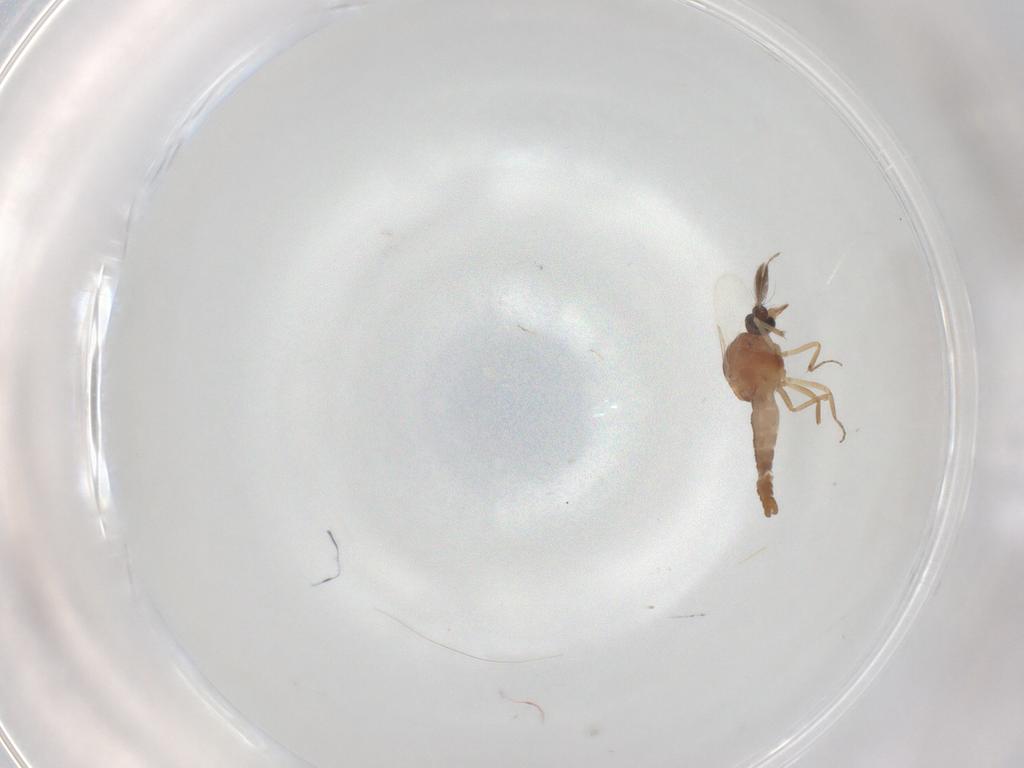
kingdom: Animalia
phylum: Arthropoda
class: Insecta
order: Diptera
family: Ceratopogonidae
